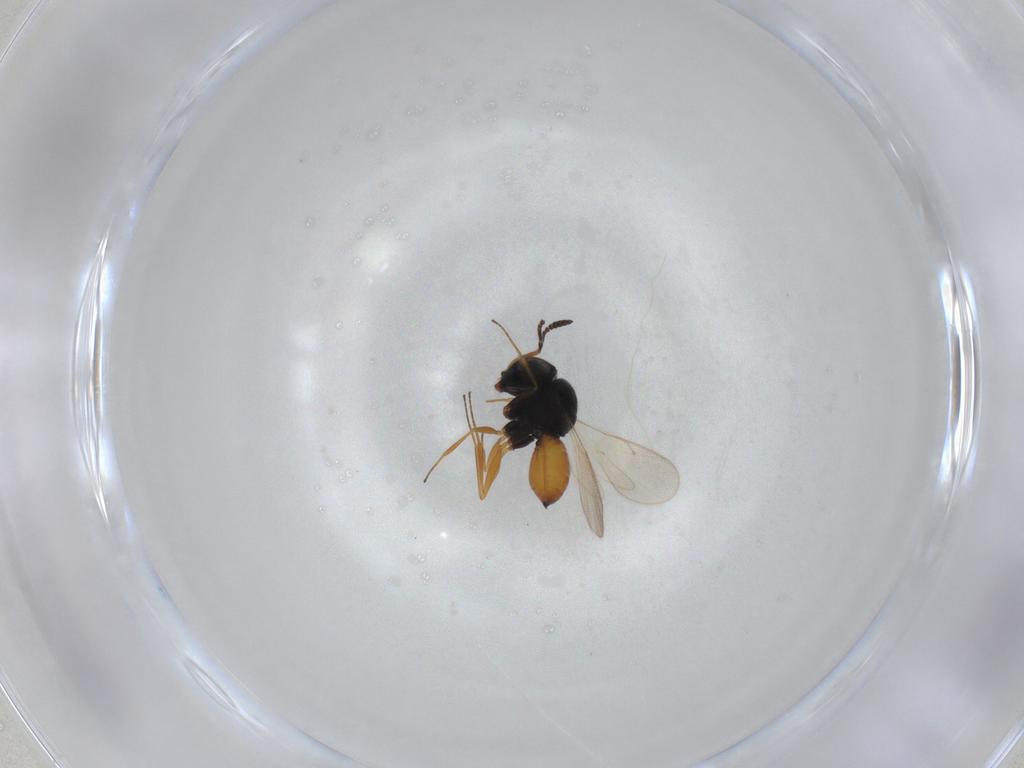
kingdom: Animalia
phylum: Arthropoda
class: Insecta
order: Hymenoptera
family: Scelionidae
